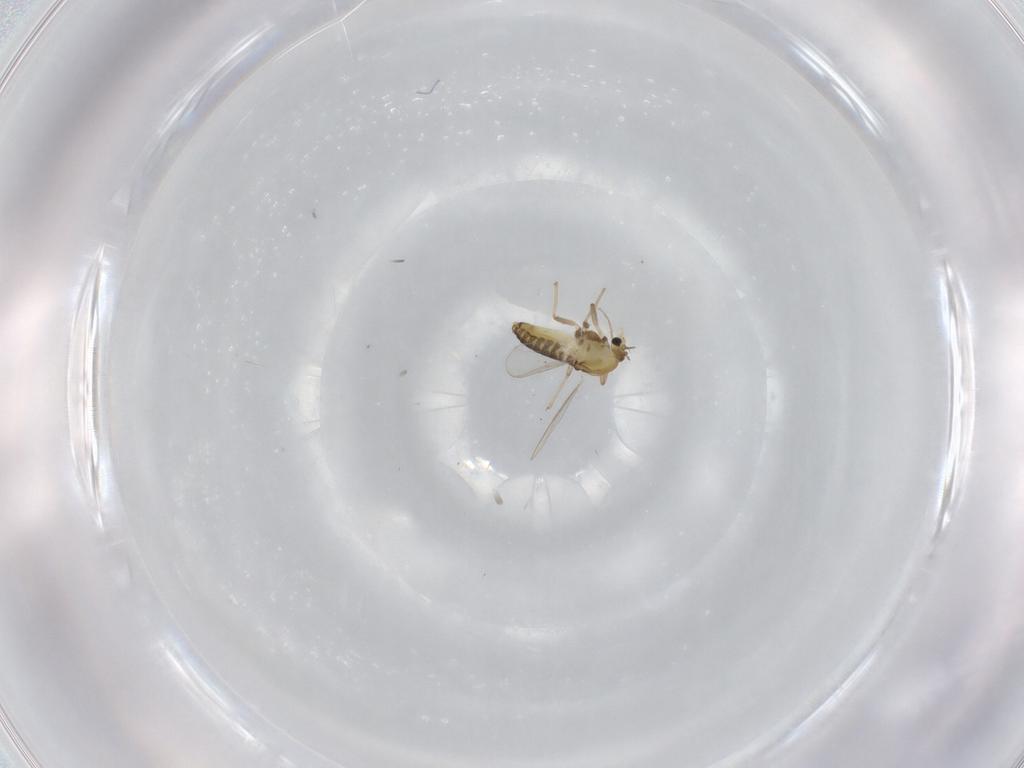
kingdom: Animalia
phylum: Arthropoda
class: Insecta
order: Diptera
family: Chironomidae
